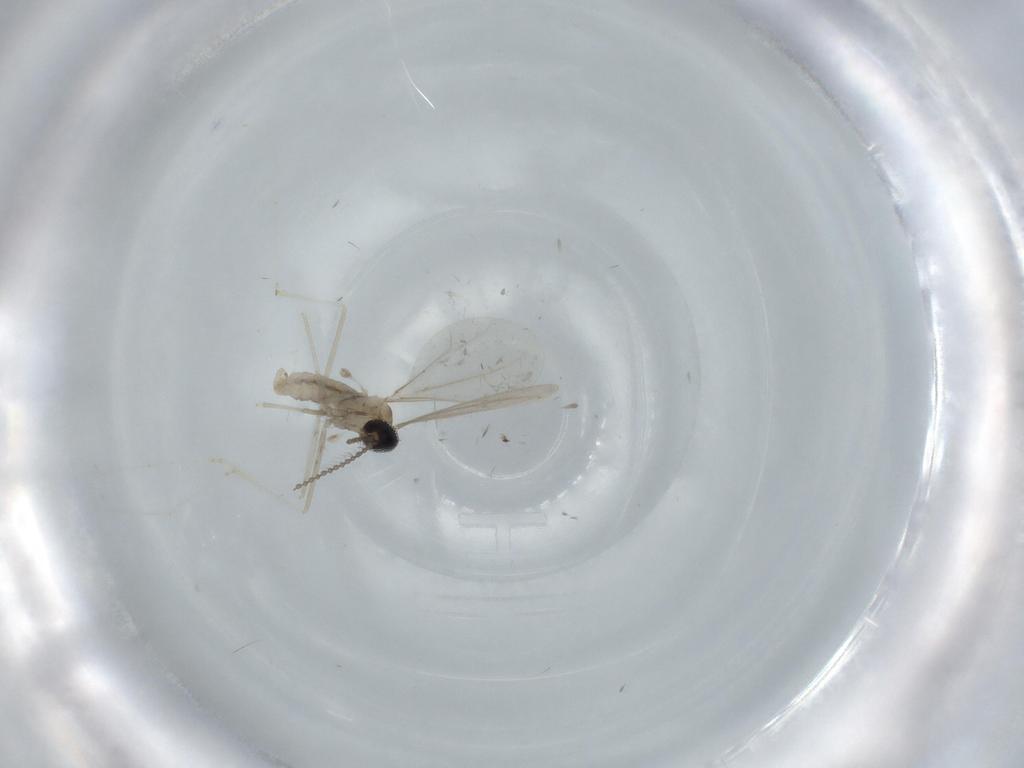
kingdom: Animalia
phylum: Arthropoda
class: Insecta
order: Diptera
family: Cecidomyiidae
